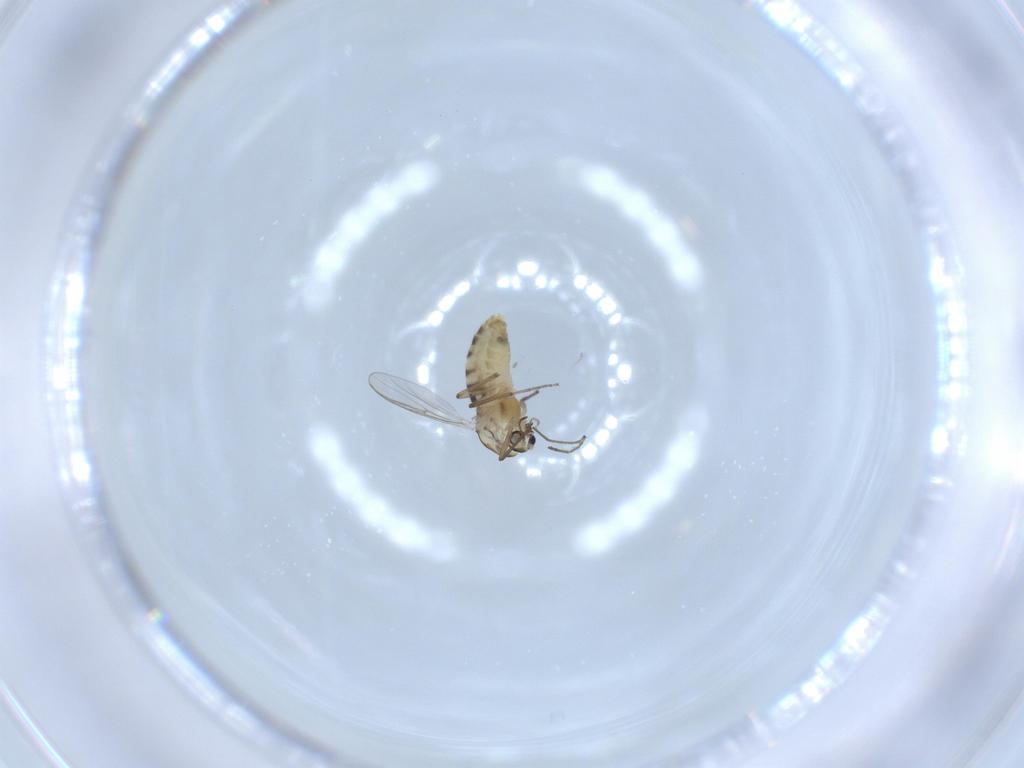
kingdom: Animalia
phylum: Arthropoda
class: Insecta
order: Diptera
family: Chironomidae
